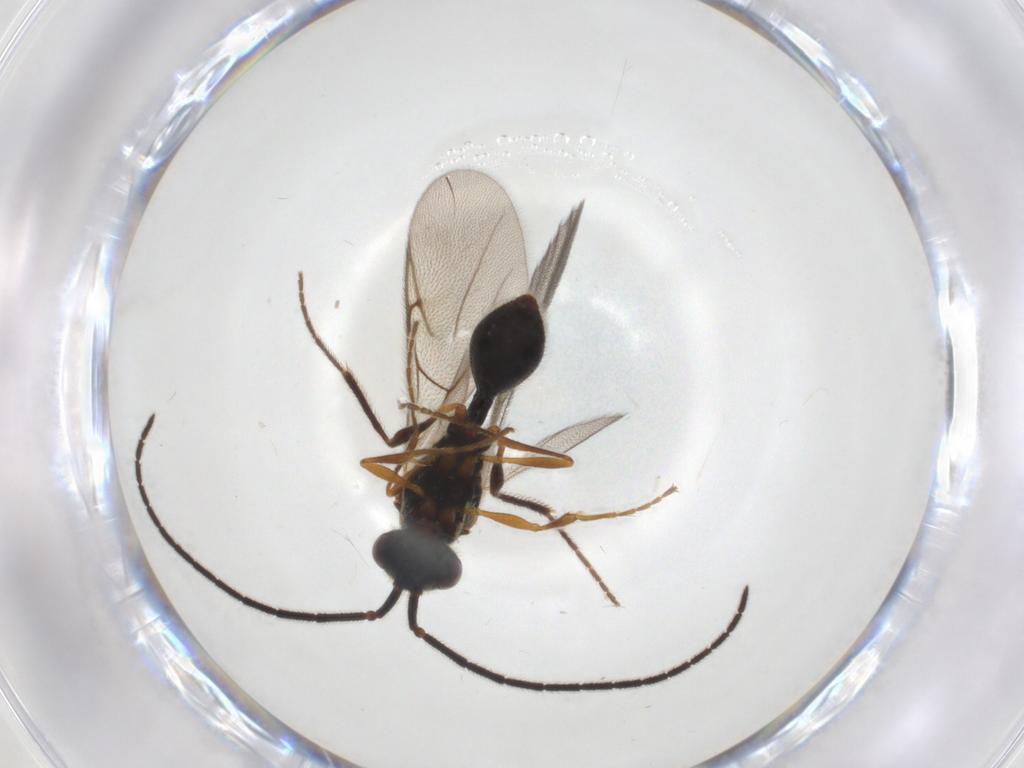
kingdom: Animalia
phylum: Arthropoda
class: Insecta
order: Hymenoptera
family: Diapriidae
